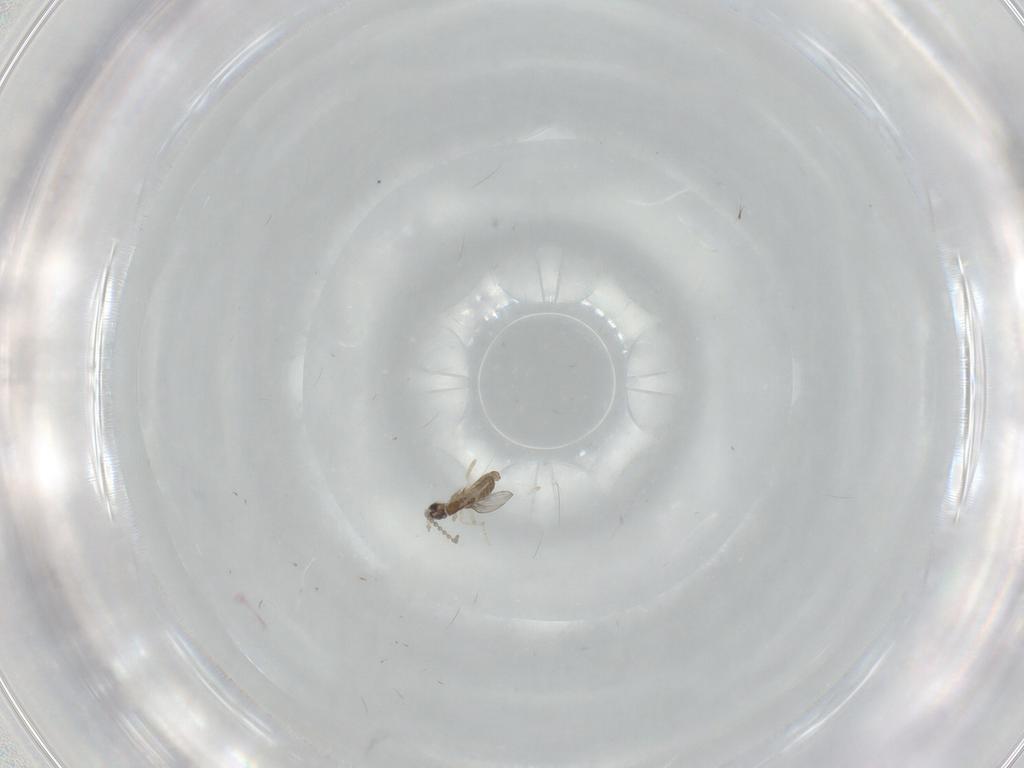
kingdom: Animalia
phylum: Arthropoda
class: Insecta
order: Diptera
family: Cecidomyiidae
